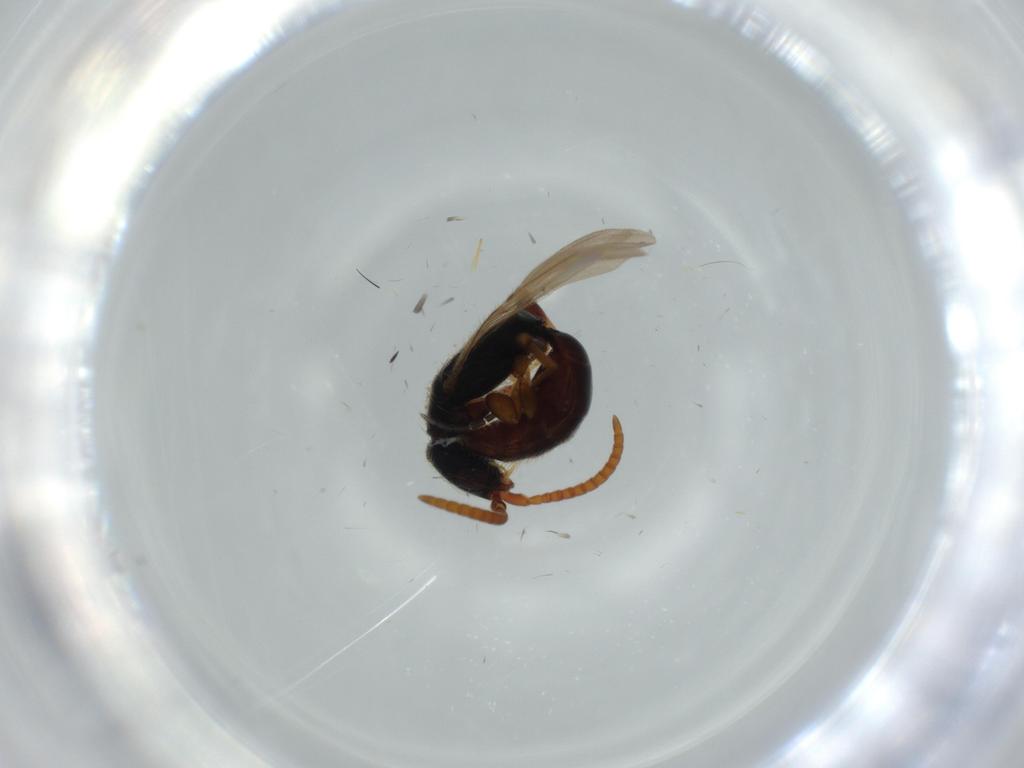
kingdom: Animalia
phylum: Arthropoda
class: Insecta
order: Hymenoptera
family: Bethylidae
